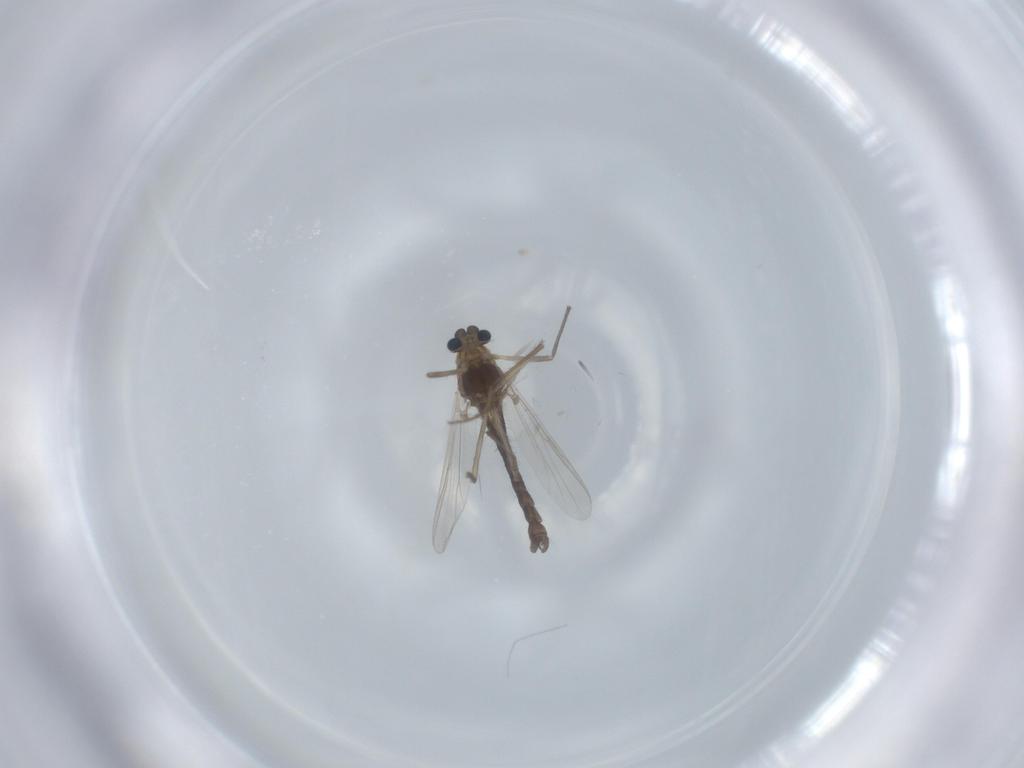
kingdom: Animalia
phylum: Arthropoda
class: Insecta
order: Diptera
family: Chironomidae
